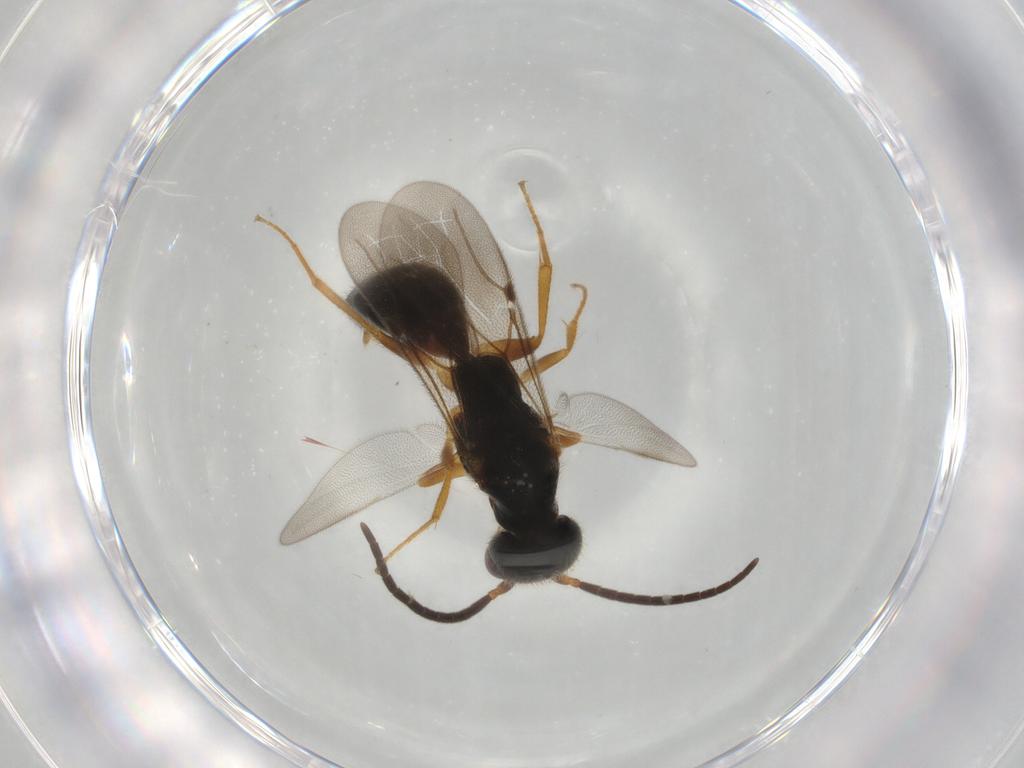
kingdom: Animalia
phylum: Arthropoda
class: Insecta
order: Hymenoptera
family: Bethylidae
